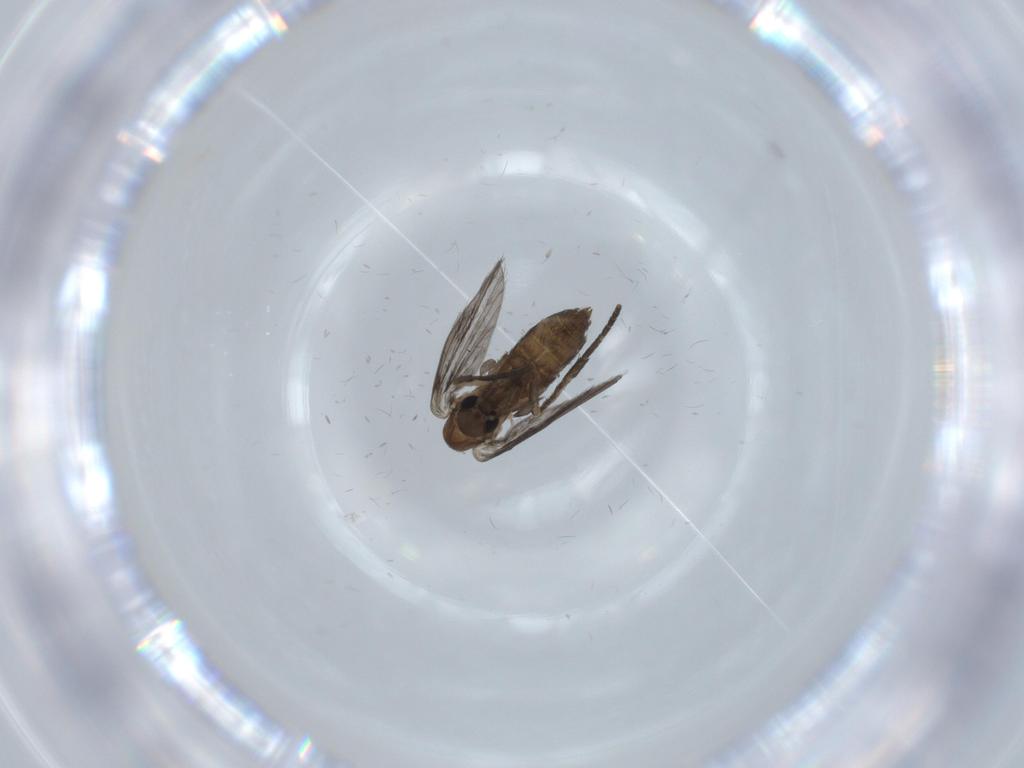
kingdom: Animalia
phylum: Arthropoda
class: Insecta
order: Diptera
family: Psychodidae
